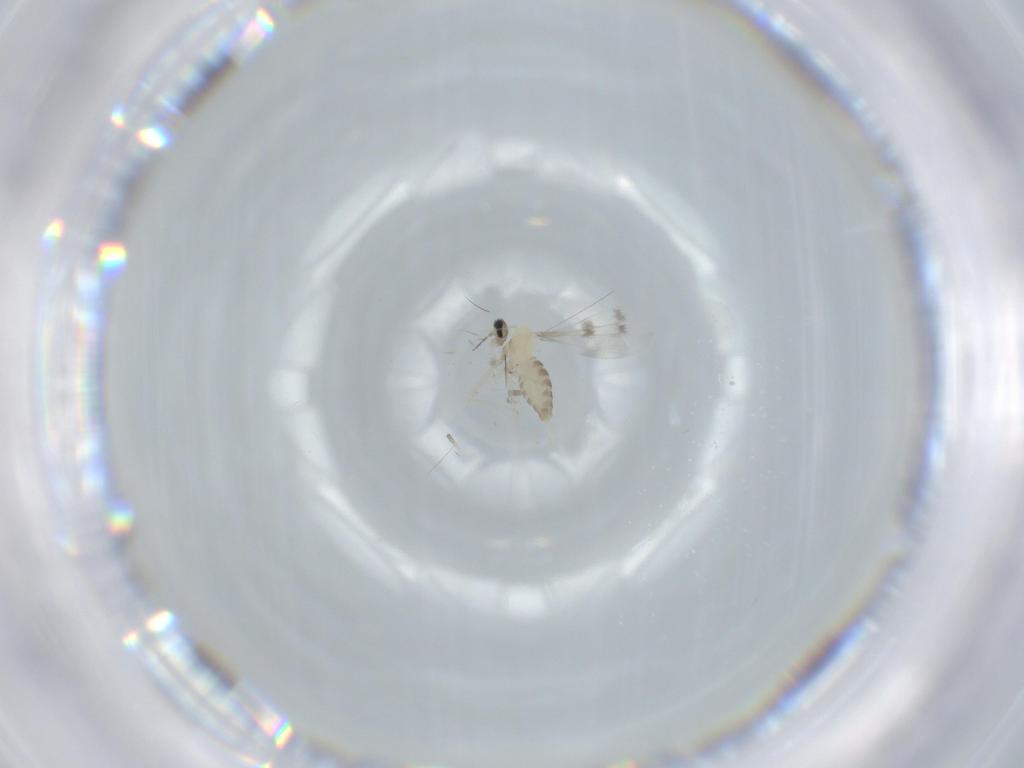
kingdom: Animalia
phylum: Arthropoda
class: Insecta
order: Diptera
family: Cecidomyiidae
